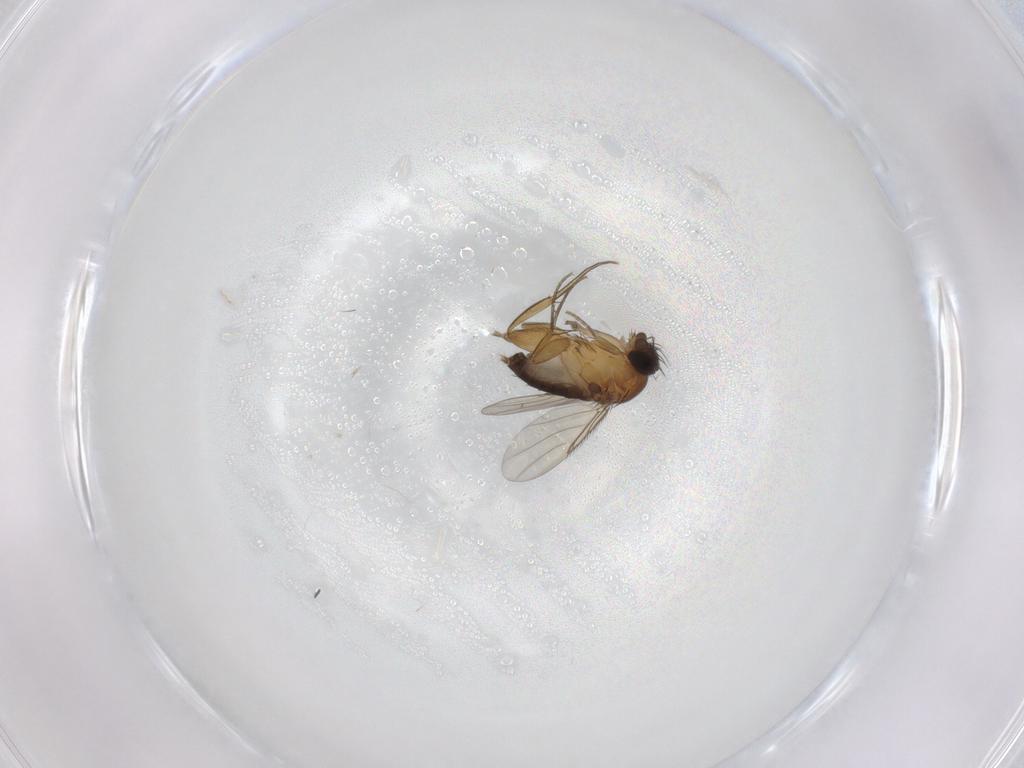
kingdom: Animalia
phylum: Arthropoda
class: Insecta
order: Diptera
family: Phoridae
